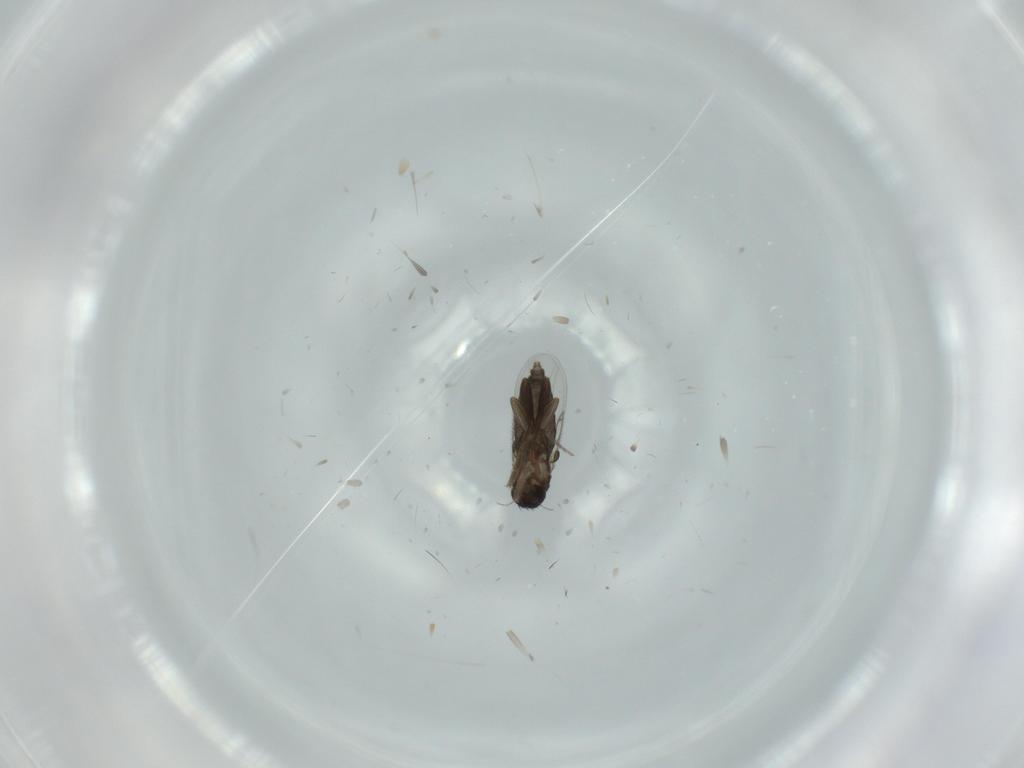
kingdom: Animalia
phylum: Arthropoda
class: Insecta
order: Diptera
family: Phoridae
